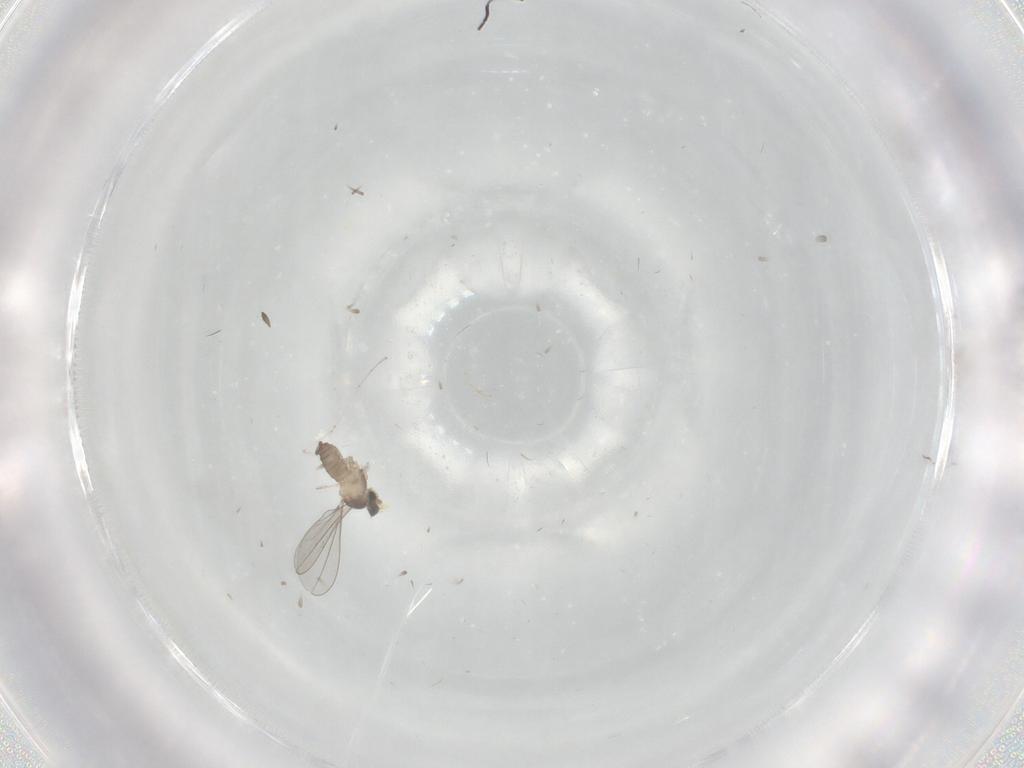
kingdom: Animalia
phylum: Arthropoda
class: Insecta
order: Diptera
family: Cecidomyiidae
